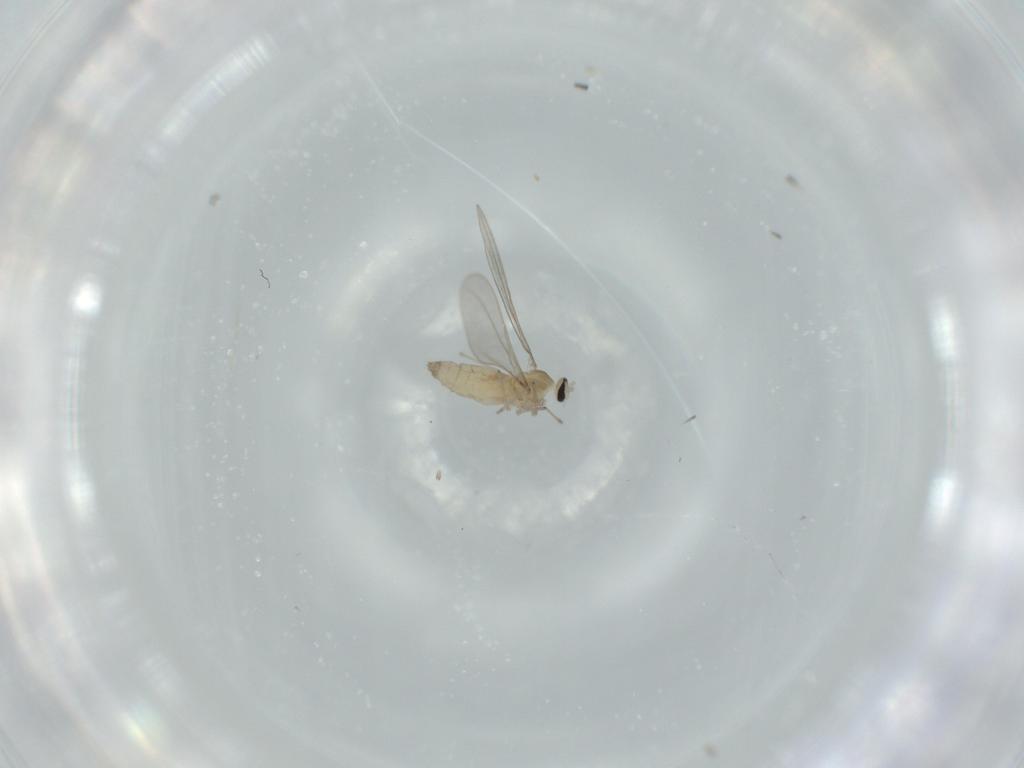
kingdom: Animalia
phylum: Arthropoda
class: Insecta
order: Diptera
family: Hybotidae
